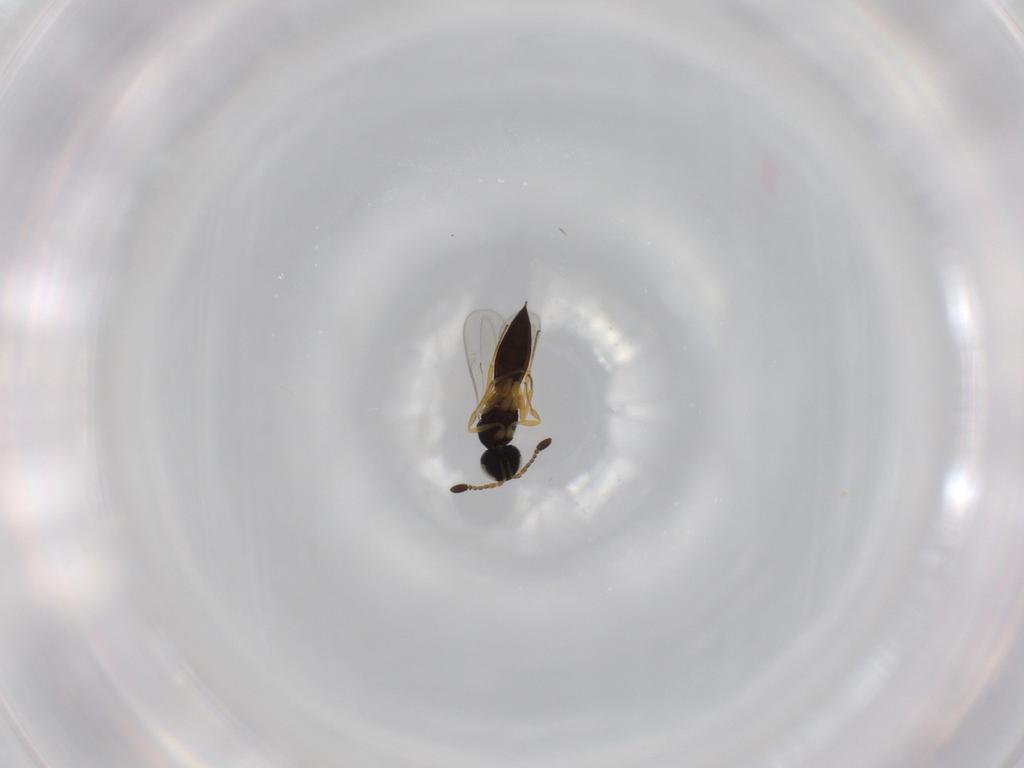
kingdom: Animalia
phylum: Arthropoda
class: Insecta
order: Hymenoptera
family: Scelionidae
